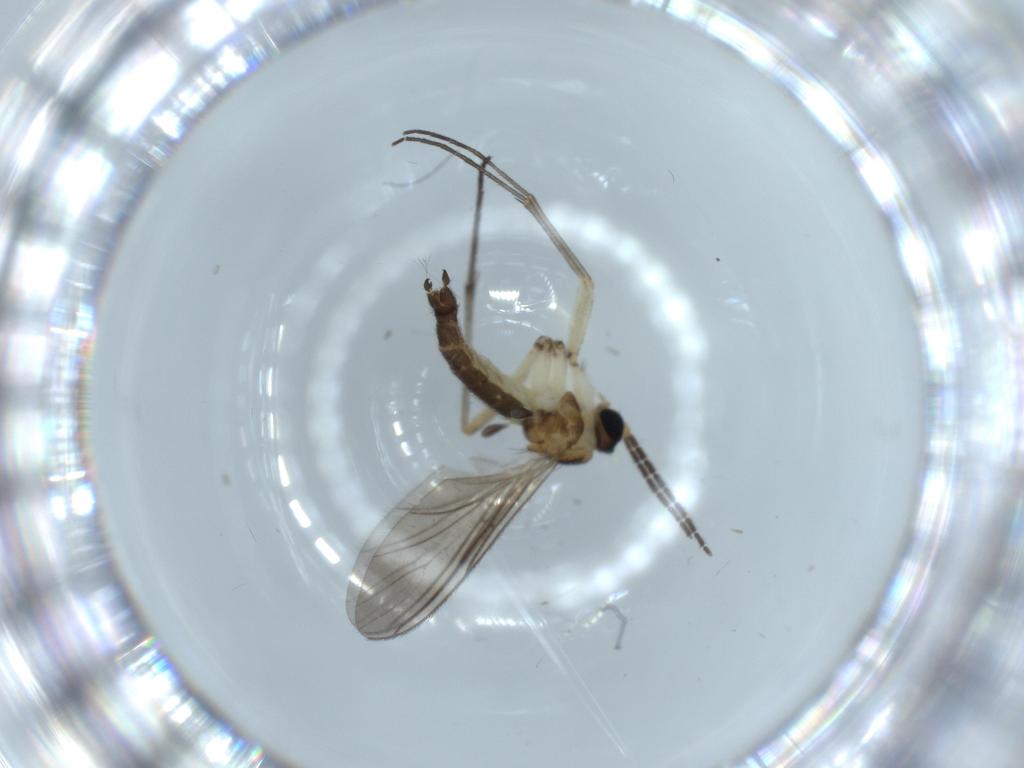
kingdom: Animalia
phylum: Arthropoda
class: Insecta
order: Diptera
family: Sciaridae
